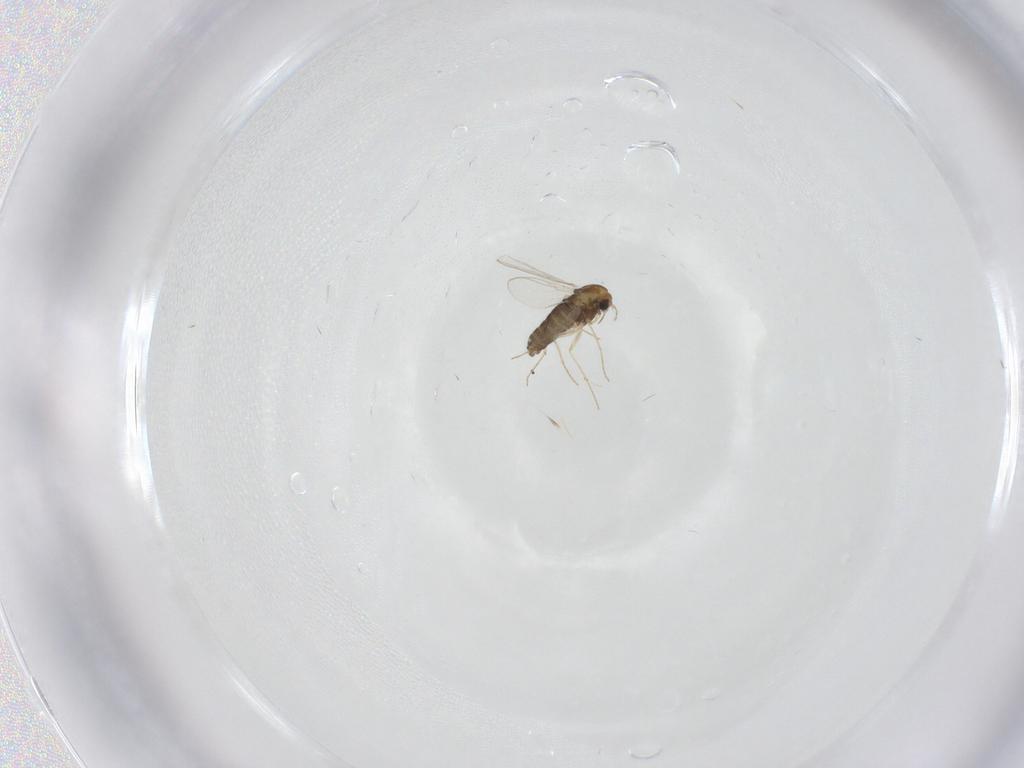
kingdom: Animalia
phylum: Arthropoda
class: Insecta
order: Diptera
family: Chironomidae
